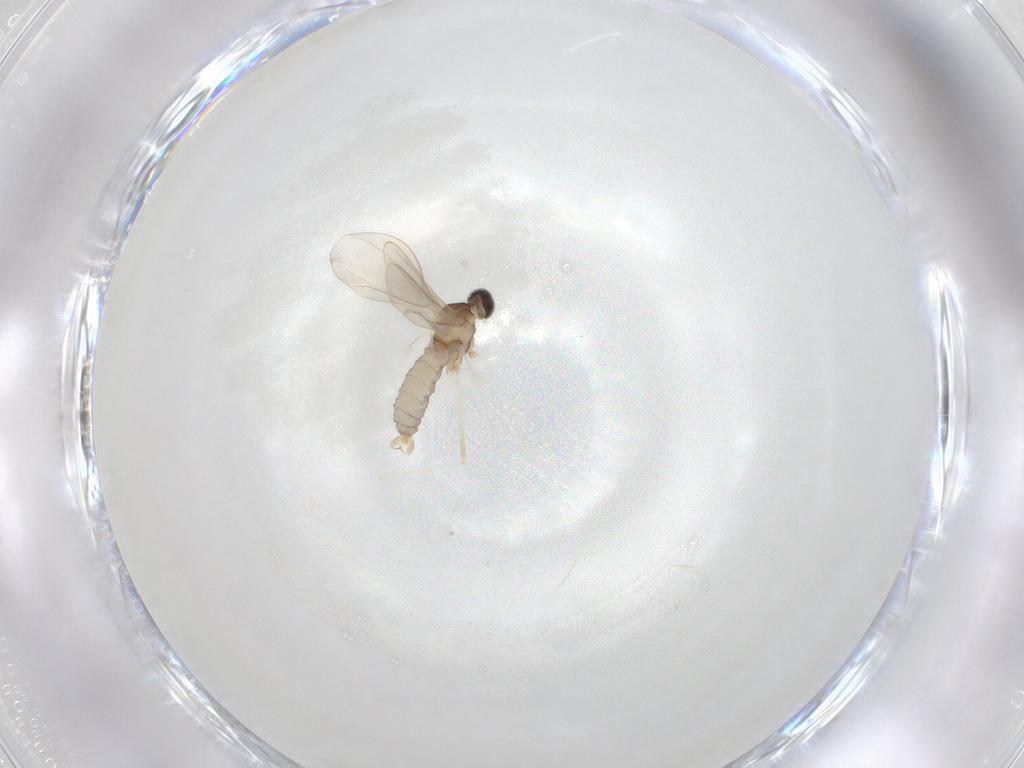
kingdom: Animalia
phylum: Arthropoda
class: Insecta
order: Diptera
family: Cecidomyiidae
